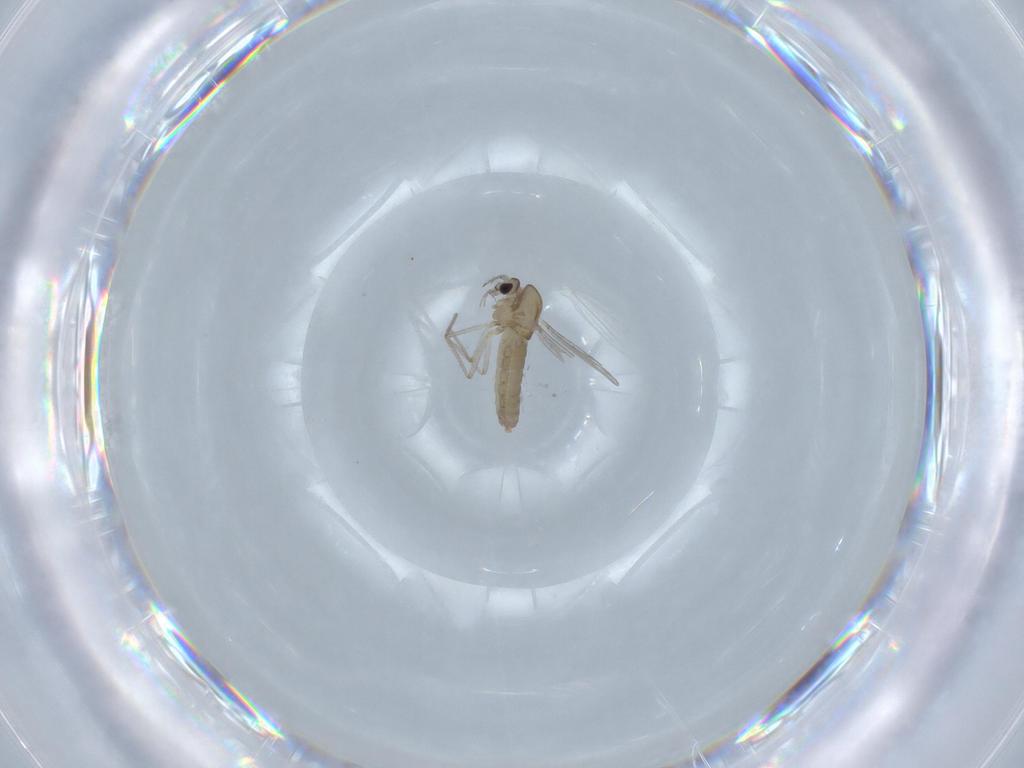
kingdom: Animalia
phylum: Arthropoda
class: Insecta
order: Diptera
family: Chironomidae
